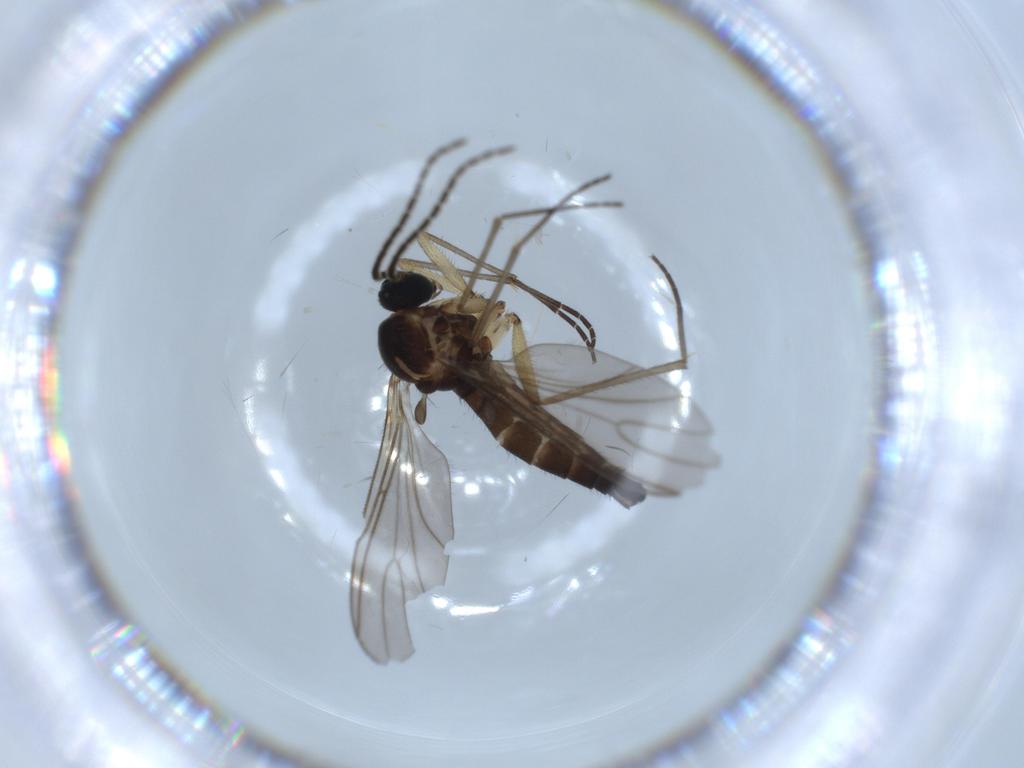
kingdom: Animalia
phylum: Arthropoda
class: Insecta
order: Diptera
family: Sciaridae
